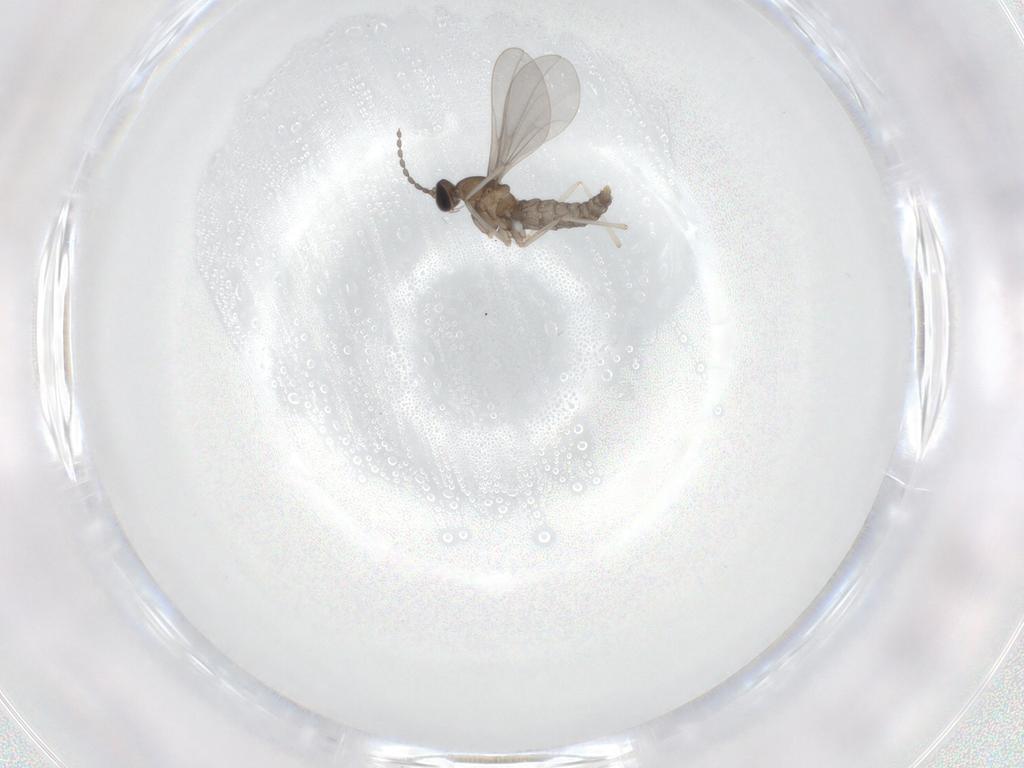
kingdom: Animalia
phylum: Arthropoda
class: Insecta
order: Diptera
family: Cecidomyiidae
